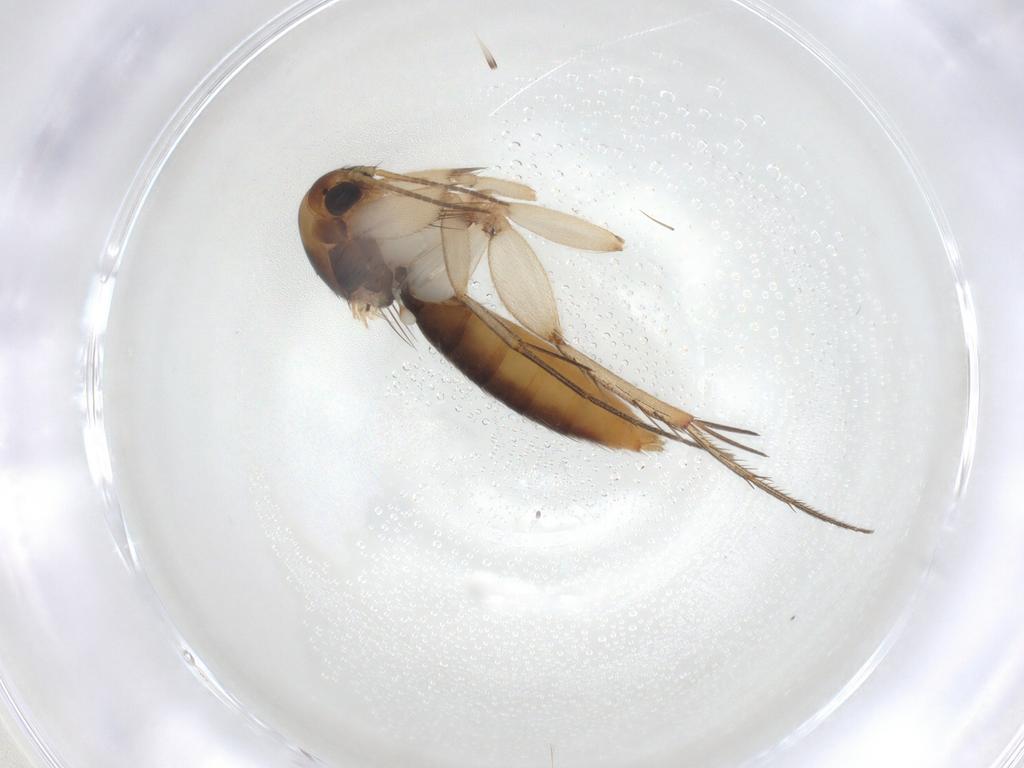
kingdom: Animalia
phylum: Arthropoda
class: Insecta
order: Diptera
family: Mycetophilidae
